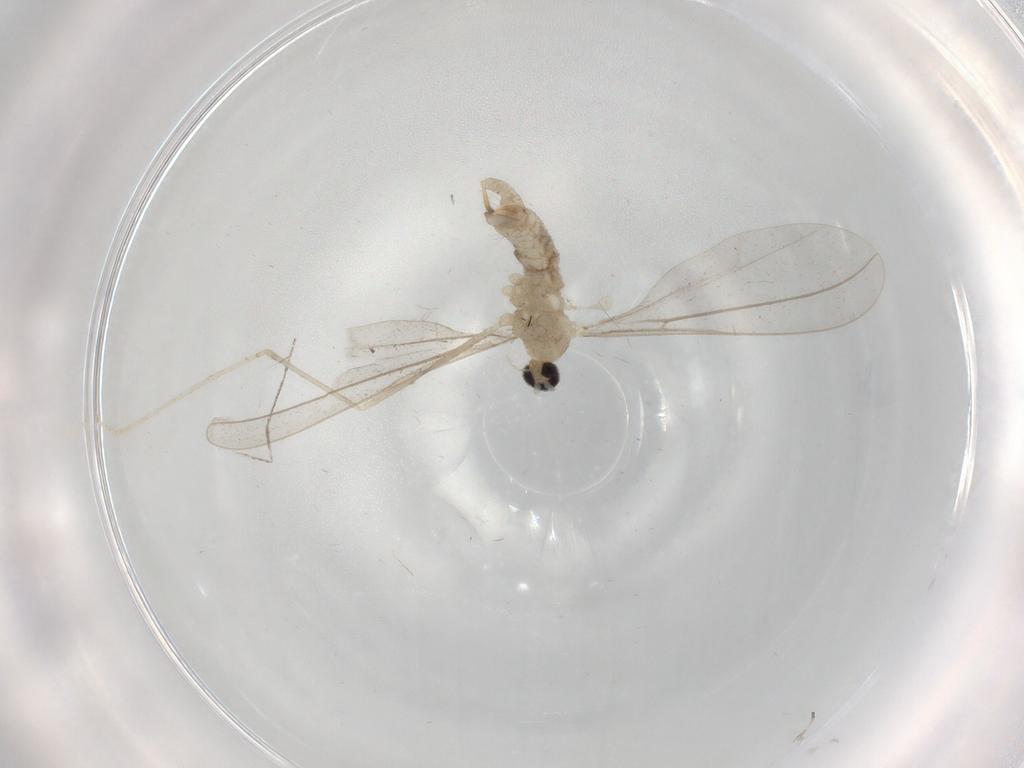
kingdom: Animalia
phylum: Arthropoda
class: Insecta
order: Diptera
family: Cecidomyiidae
